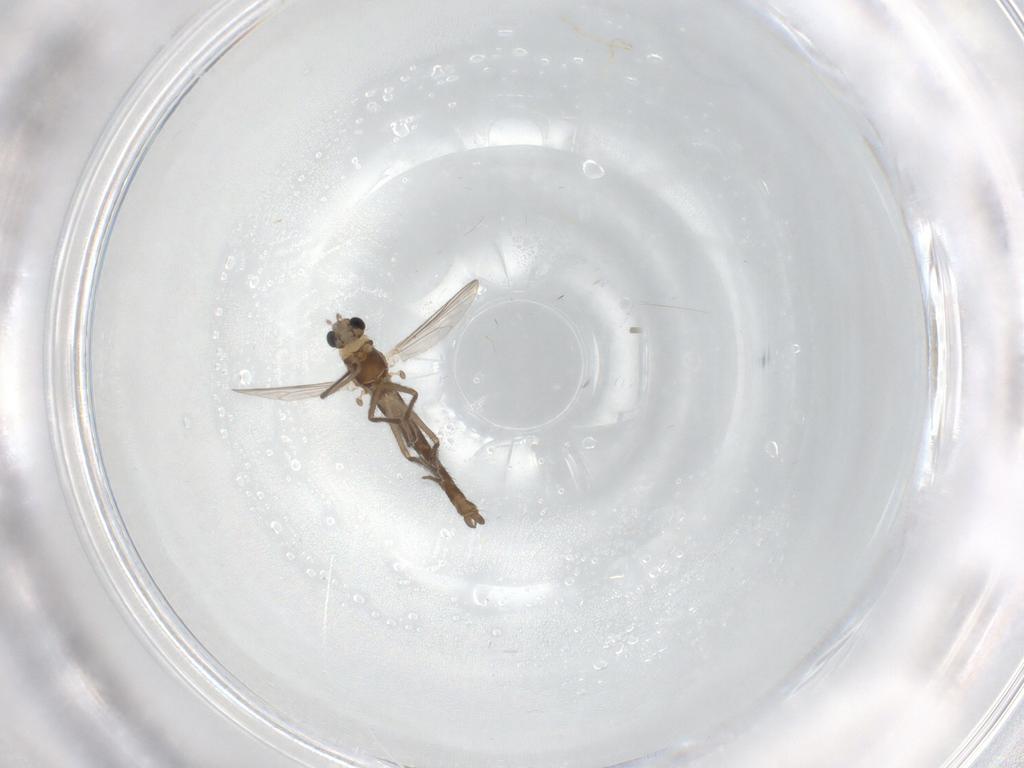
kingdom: Animalia
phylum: Arthropoda
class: Insecta
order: Diptera
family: Chironomidae
